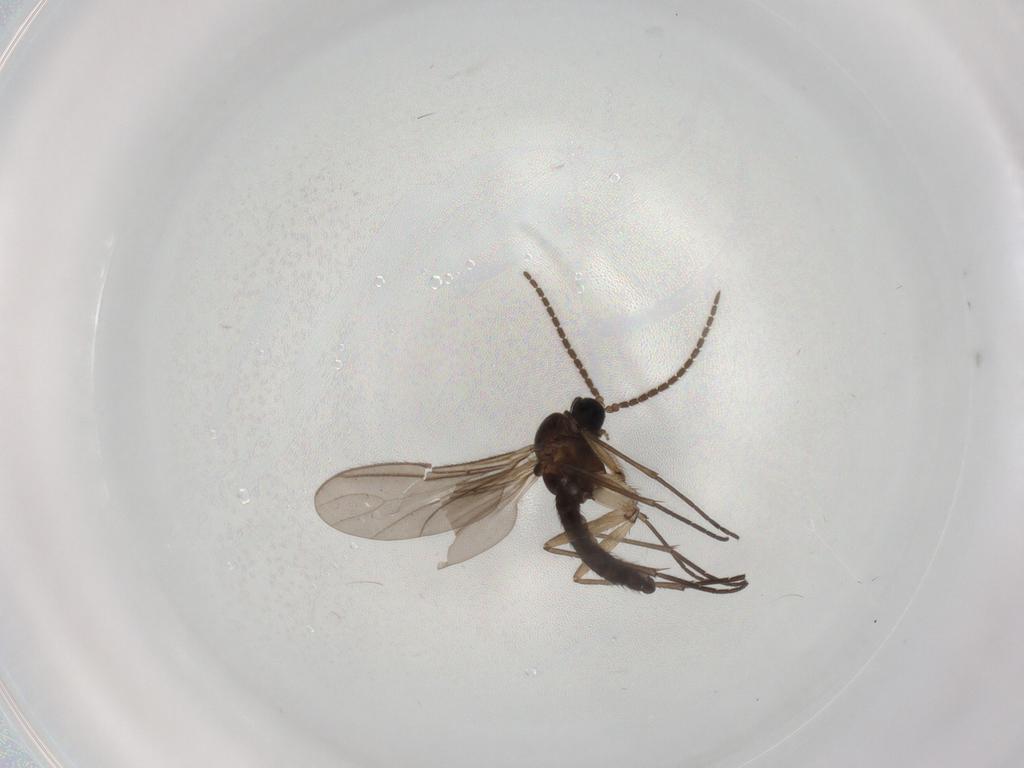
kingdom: Animalia
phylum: Arthropoda
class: Insecta
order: Diptera
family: Sciaridae
